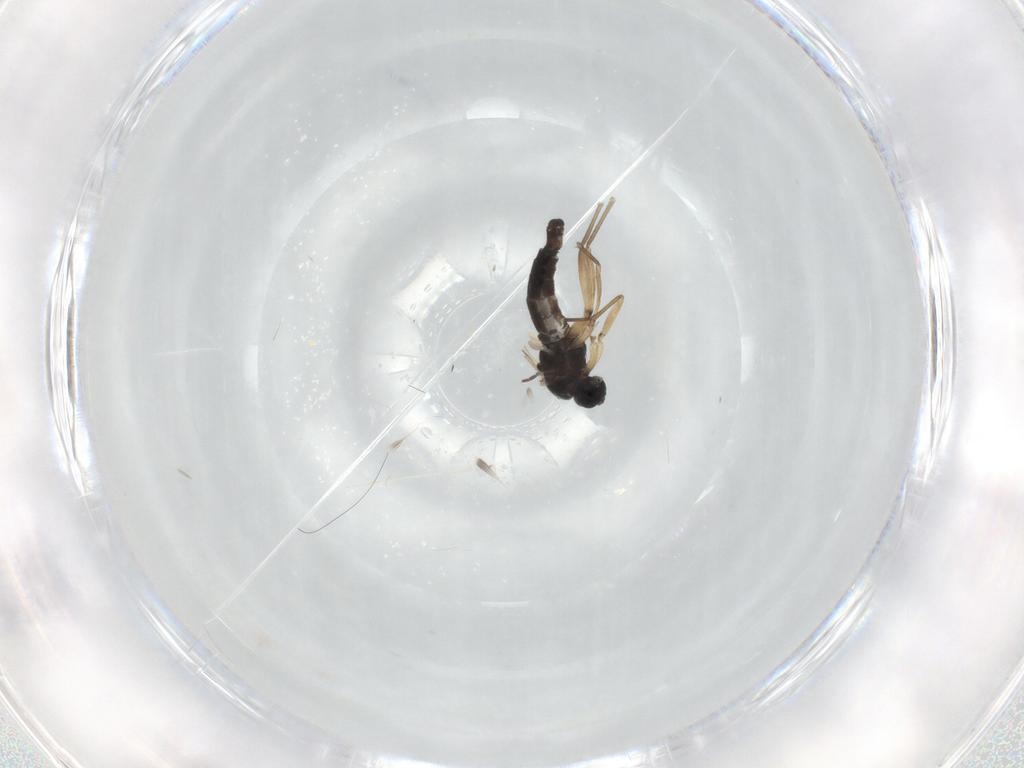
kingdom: Animalia
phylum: Arthropoda
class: Insecta
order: Diptera
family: Sciaridae
